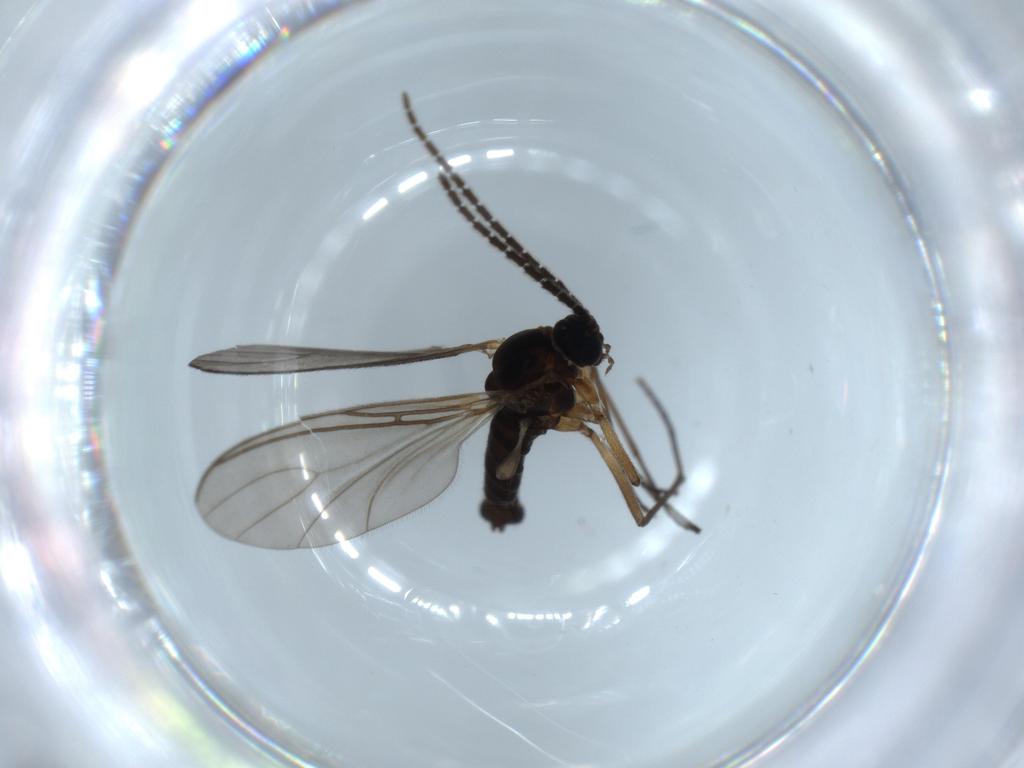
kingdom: Animalia
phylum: Arthropoda
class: Insecta
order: Diptera
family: Sciaridae
